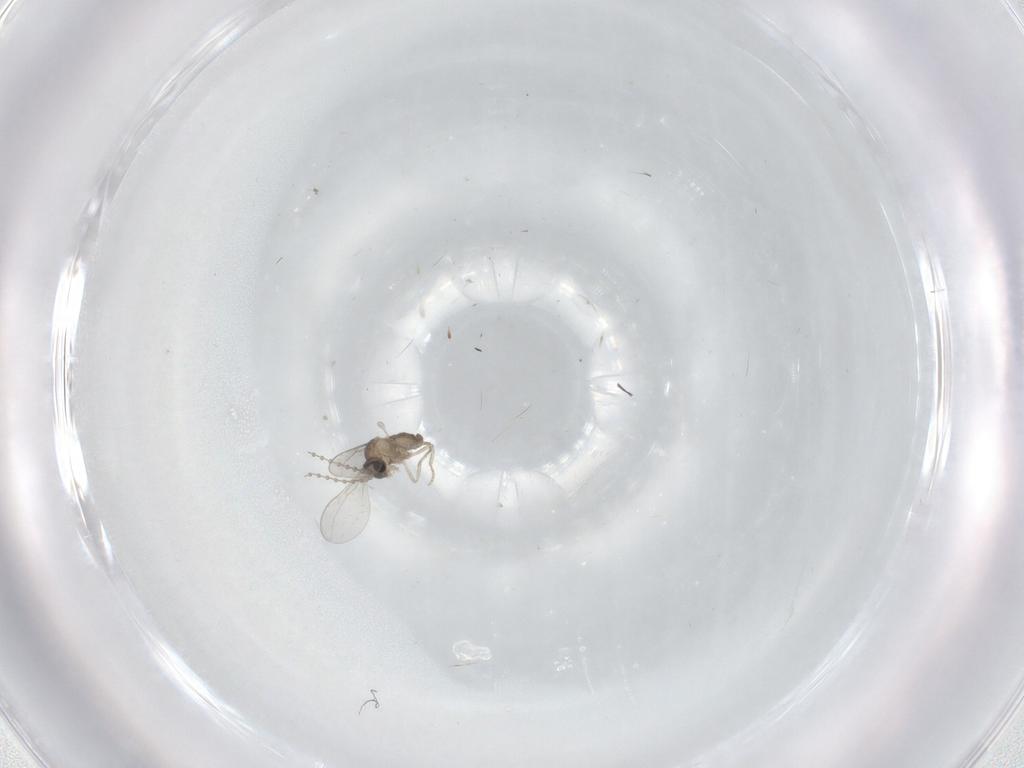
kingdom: Animalia
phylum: Arthropoda
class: Insecta
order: Diptera
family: Cecidomyiidae
